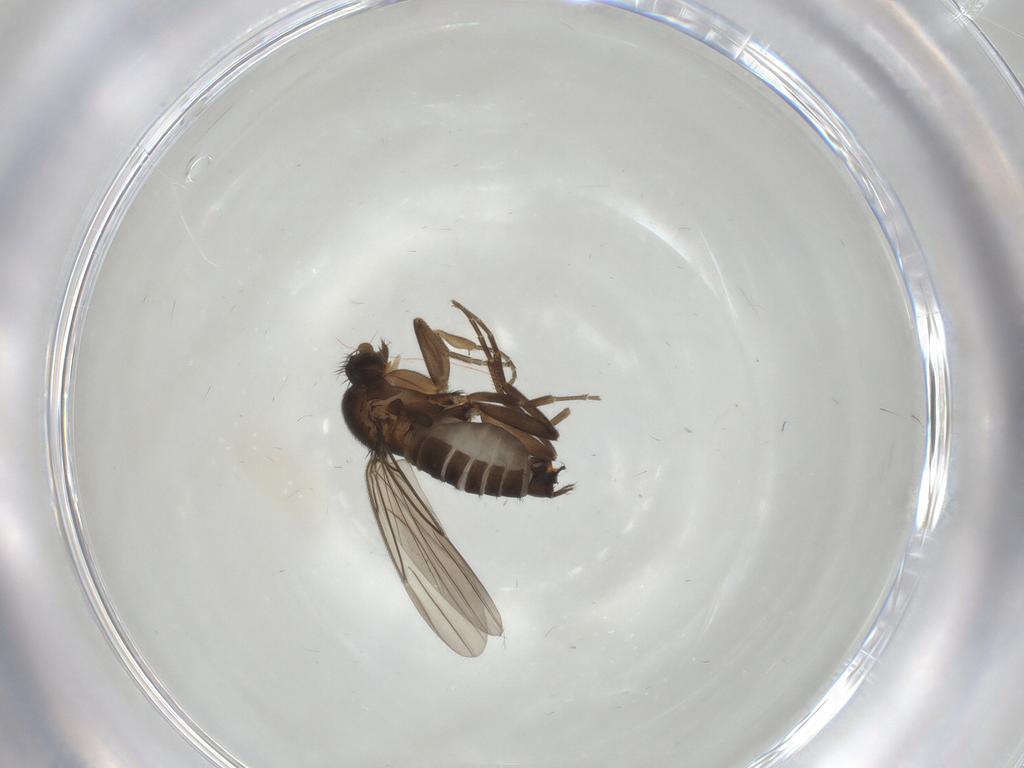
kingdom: Animalia
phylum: Arthropoda
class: Insecta
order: Diptera
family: Chironomidae
